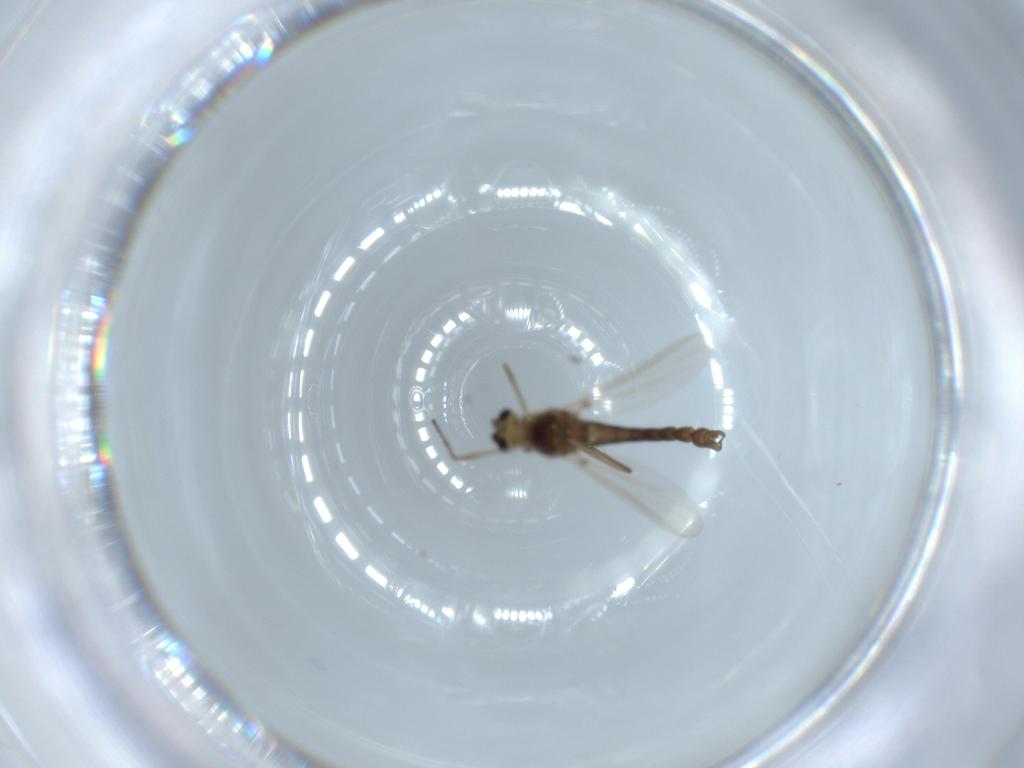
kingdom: Animalia
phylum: Arthropoda
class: Insecta
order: Diptera
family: Chironomidae
